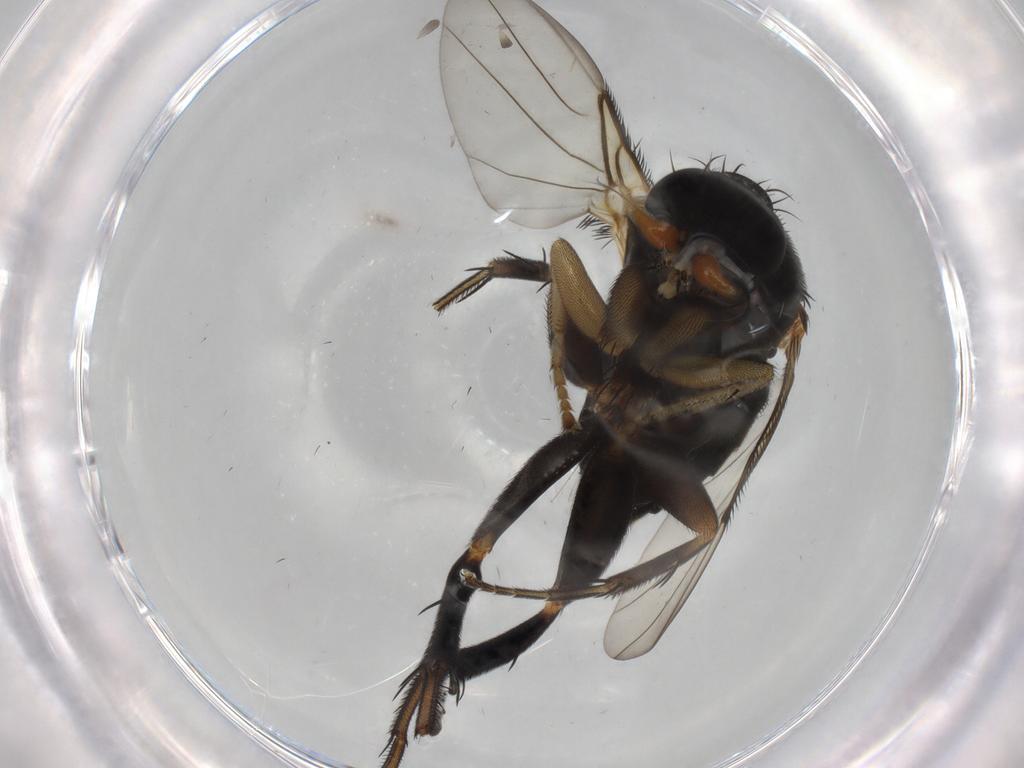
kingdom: Animalia
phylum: Arthropoda
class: Insecta
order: Diptera
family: Phoridae
